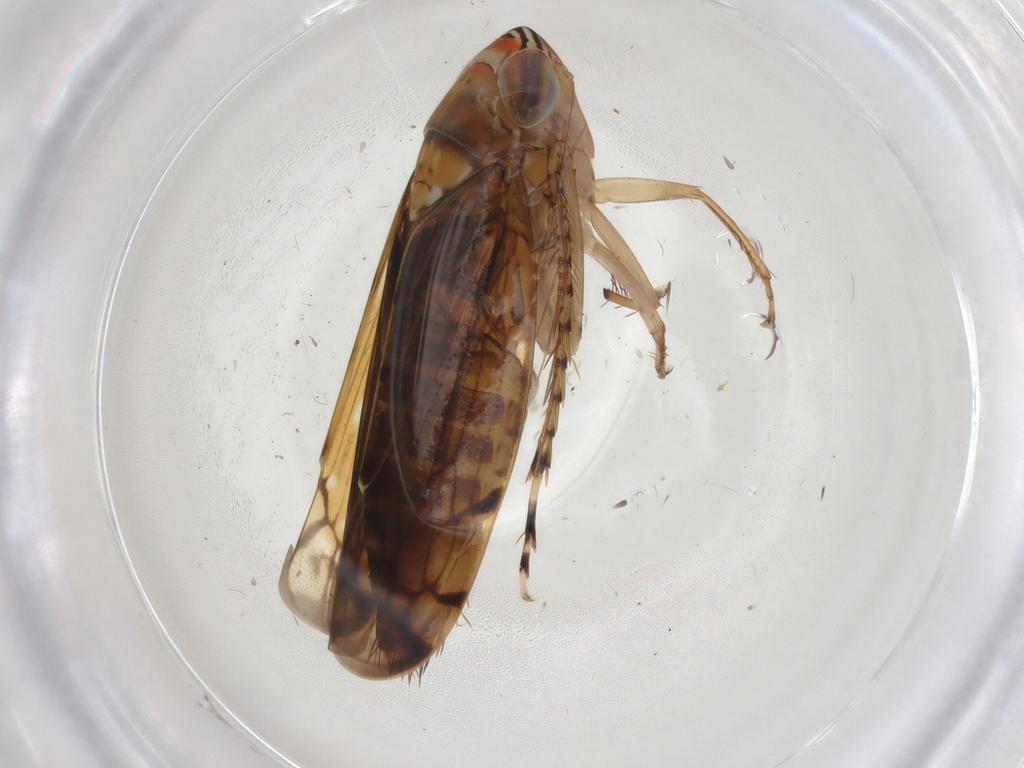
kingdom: Animalia
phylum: Arthropoda
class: Insecta
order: Hemiptera
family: Cicadellidae
